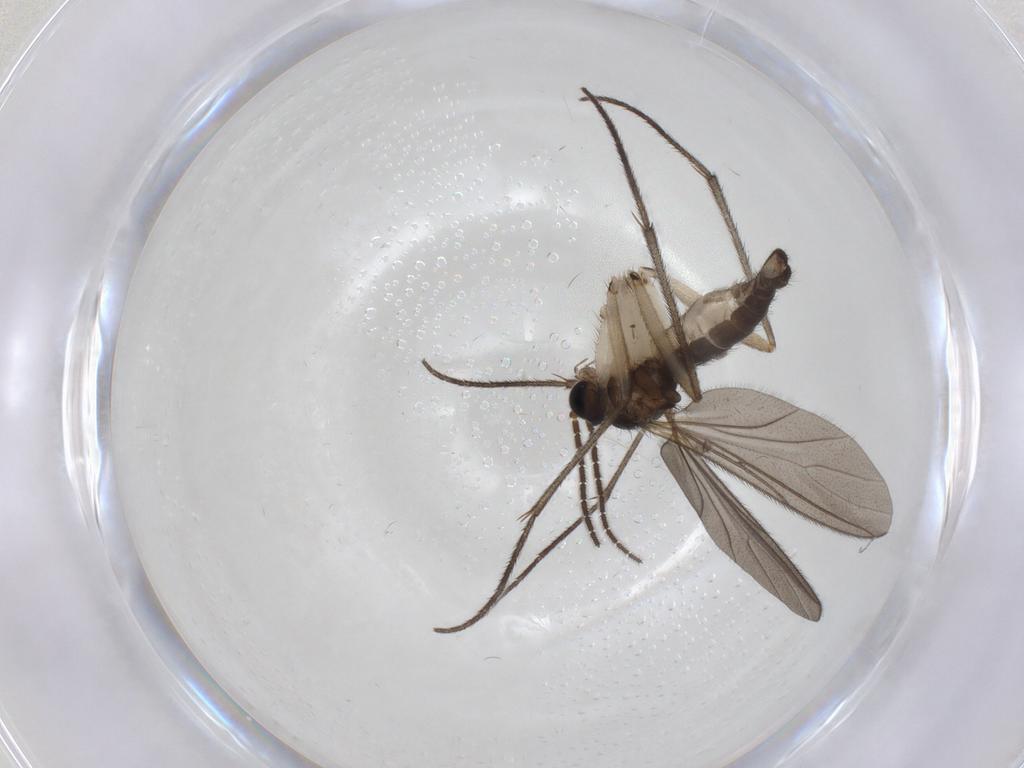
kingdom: Animalia
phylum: Arthropoda
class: Insecta
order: Diptera
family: Sciaridae
